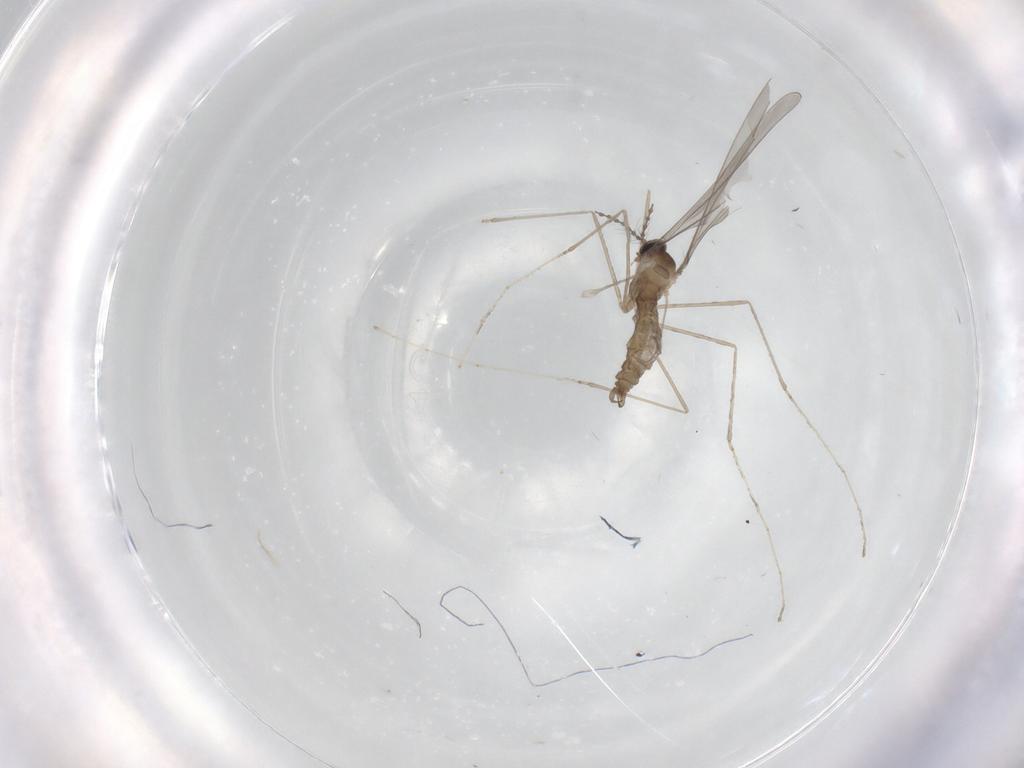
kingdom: Animalia
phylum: Arthropoda
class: Insecta
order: Diptera
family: Cecidomyiidae
